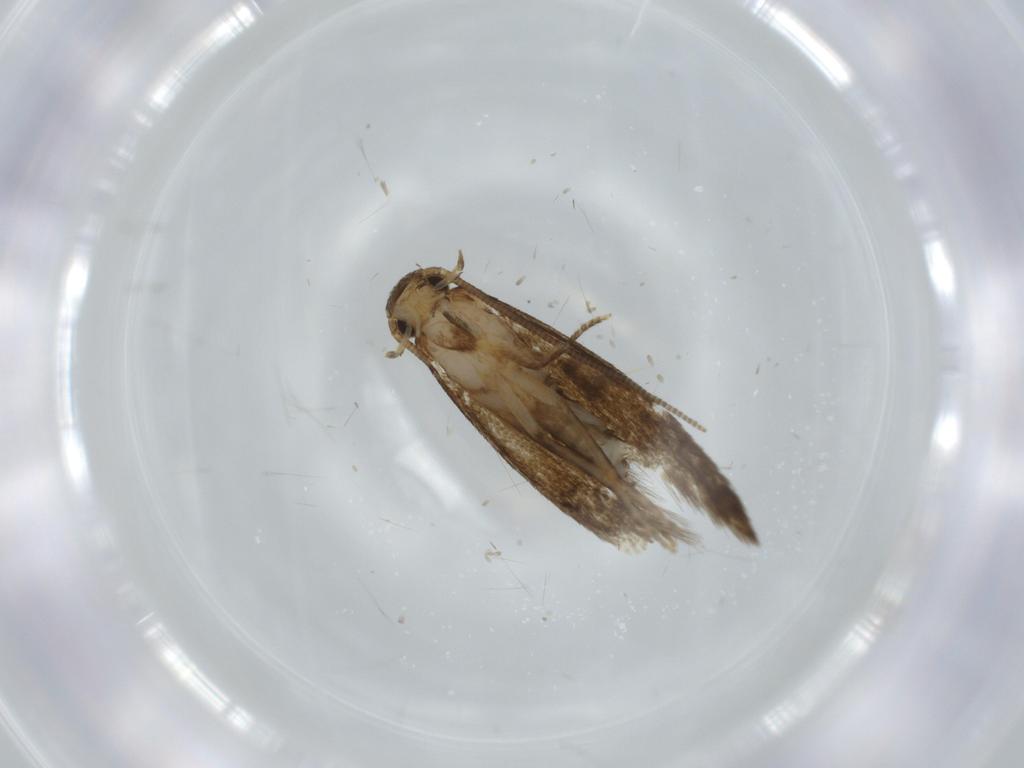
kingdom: Animalia
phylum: Arthropoda
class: Insecta
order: Lepidoptera
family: Tineidae
